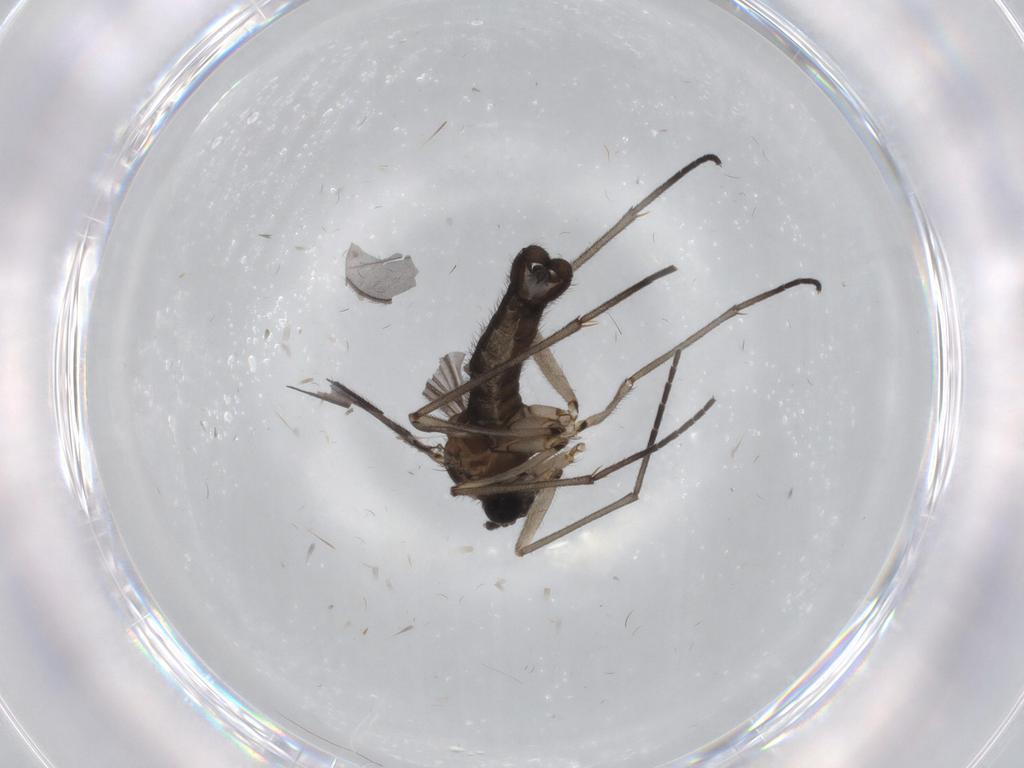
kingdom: Animalia
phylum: Arthropoda
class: Insecta
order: Diptera
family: Sciaridae
